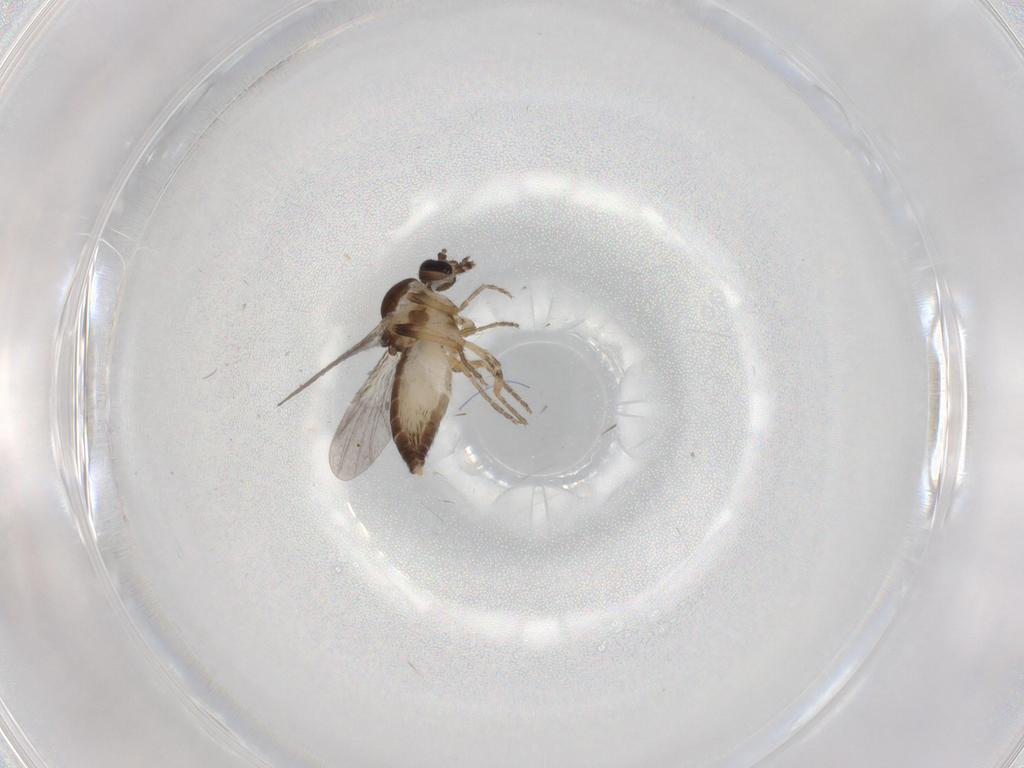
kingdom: Animalia
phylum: Arthropoda
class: Insecta
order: Diptera
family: Ceratopogonidae
